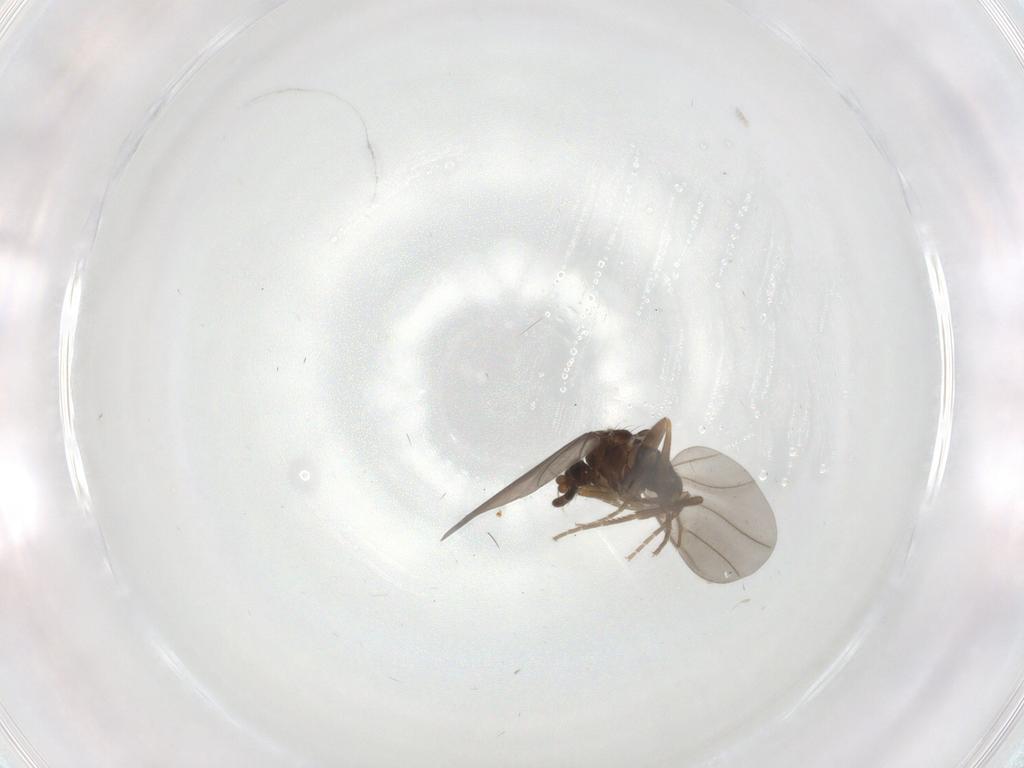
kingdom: Animalia
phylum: Arthropoda
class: Insecta
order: Diptera
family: Phoridae
